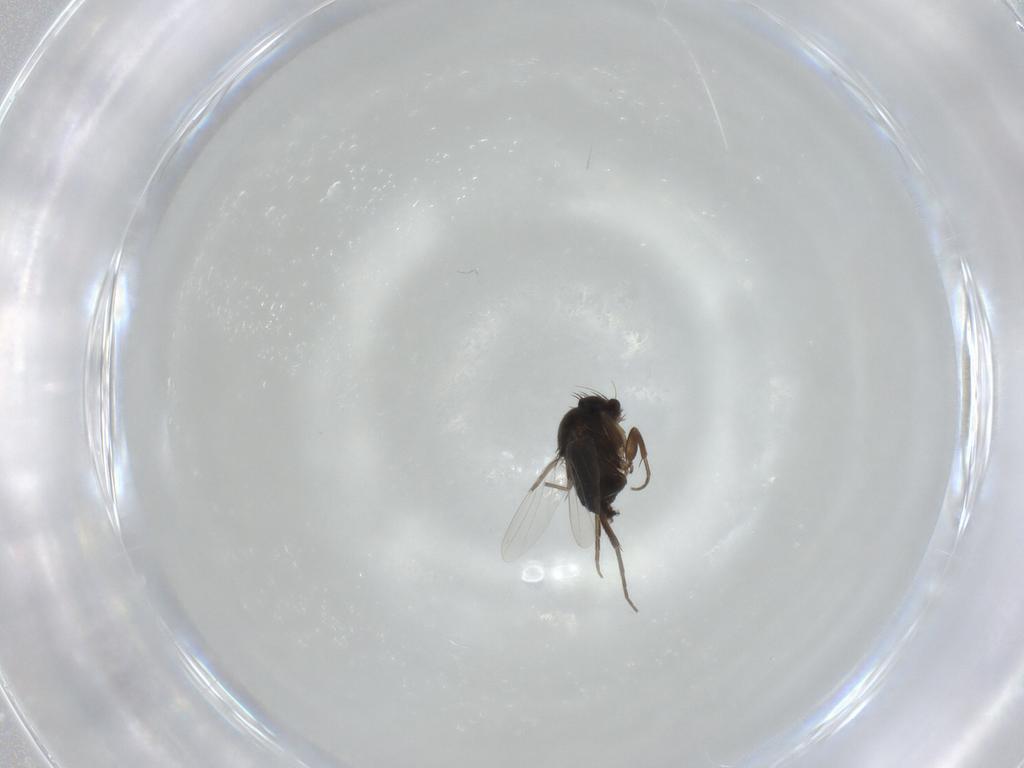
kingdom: Animalia
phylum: Arthropoda
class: Insecta
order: Diptera
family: Phoridae
